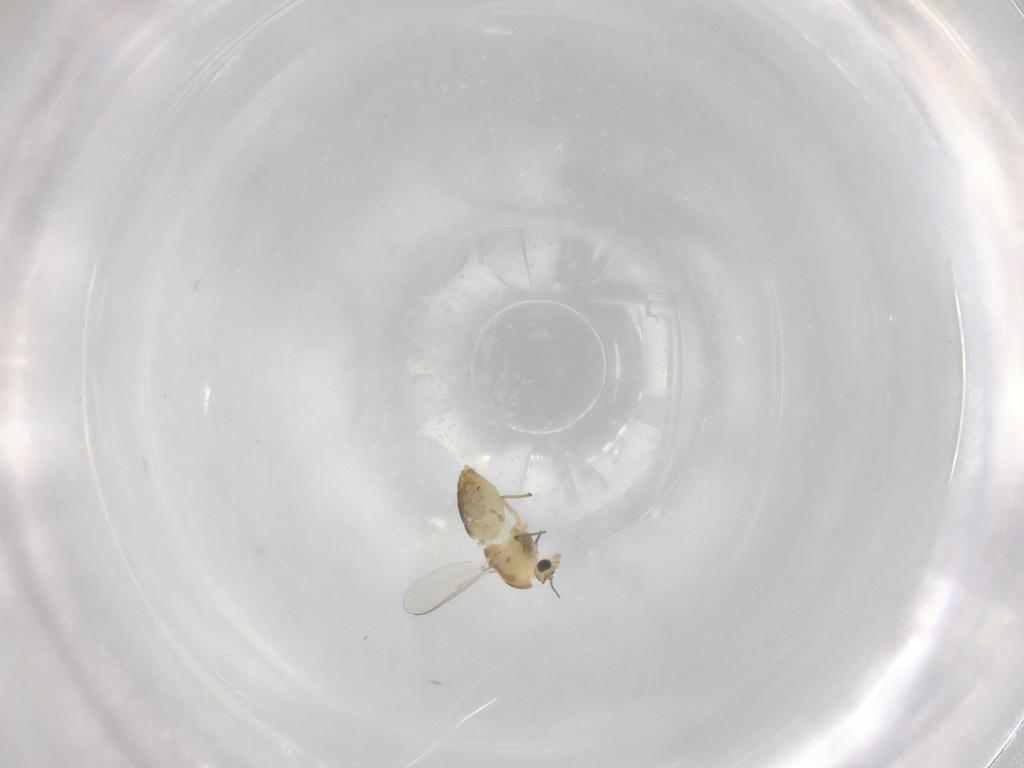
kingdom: Animalia
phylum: Arthropoda
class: Insecta
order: Diptera
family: Chironomidae
